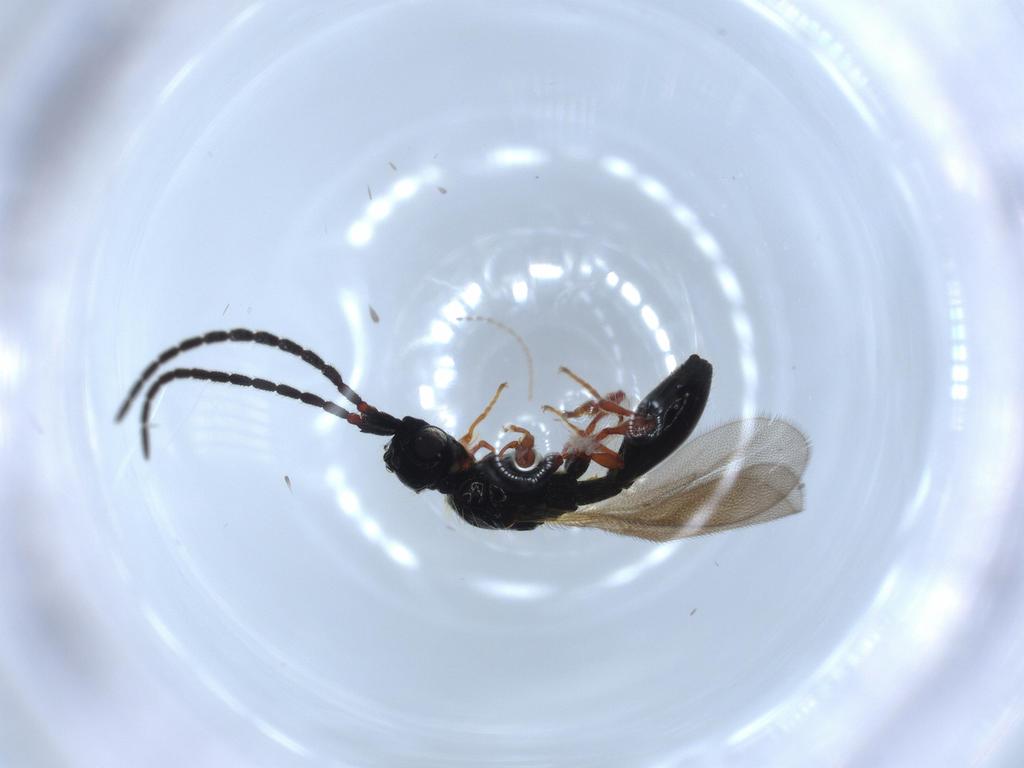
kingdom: Animalia
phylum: Arthropoda
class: Insecta
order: Hymenoptera
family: Diapriidae
